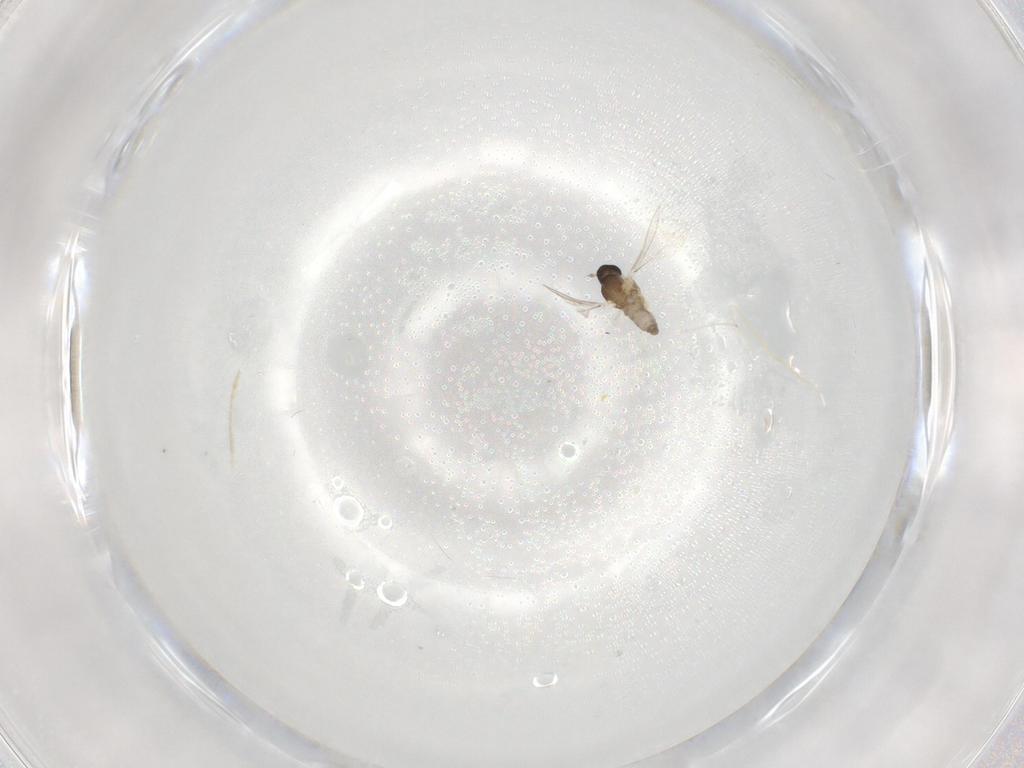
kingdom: Animalia
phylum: Arthropoda
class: Insecta
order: Diptera
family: Cecidomyiidae
